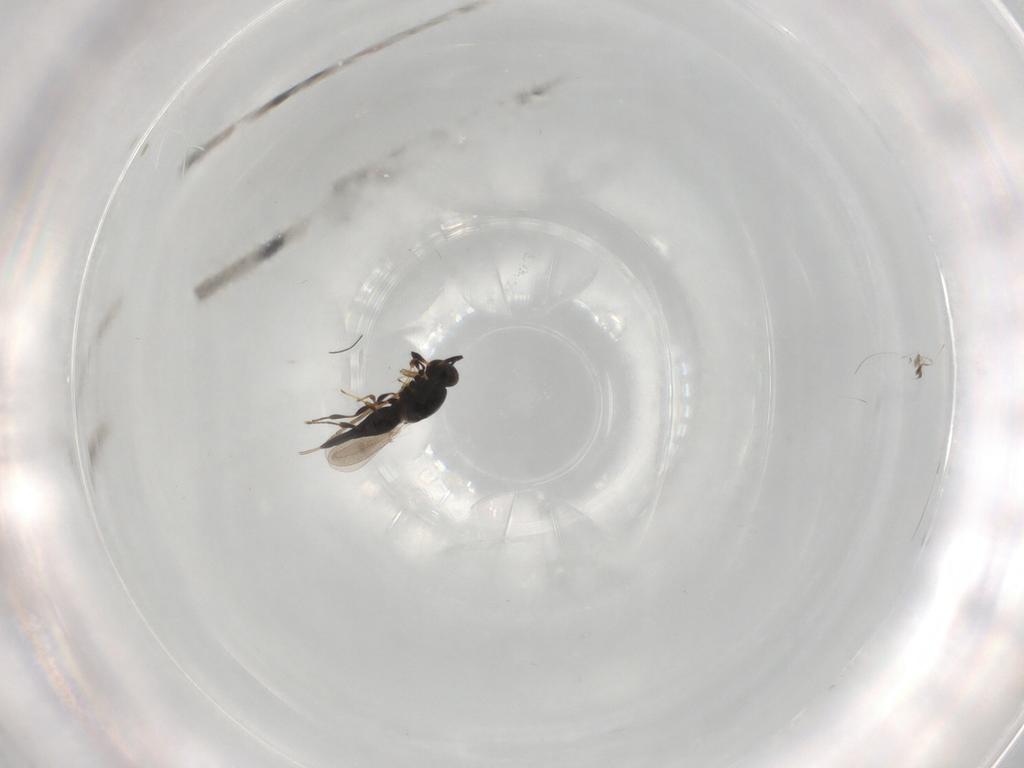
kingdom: Animalia
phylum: Arthropoda
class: Insecta
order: Hymenoptera
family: Platygastridae
